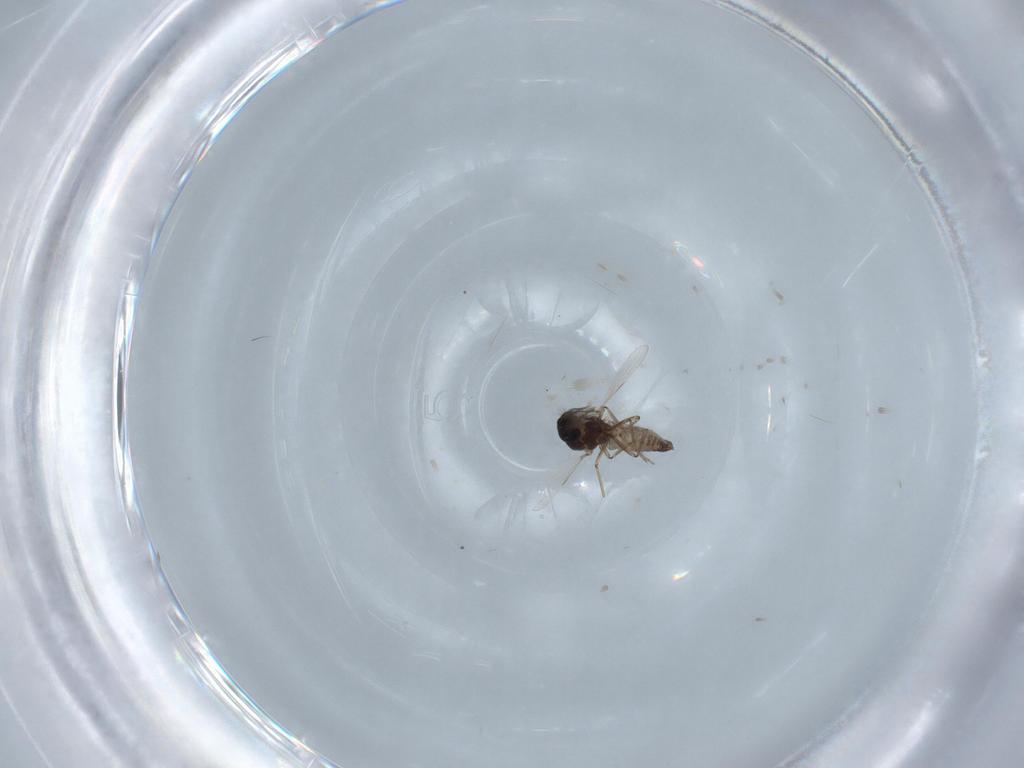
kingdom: Animalia
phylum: Arthropoda
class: Insecta
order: Diptera
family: Ceratopogonidae
